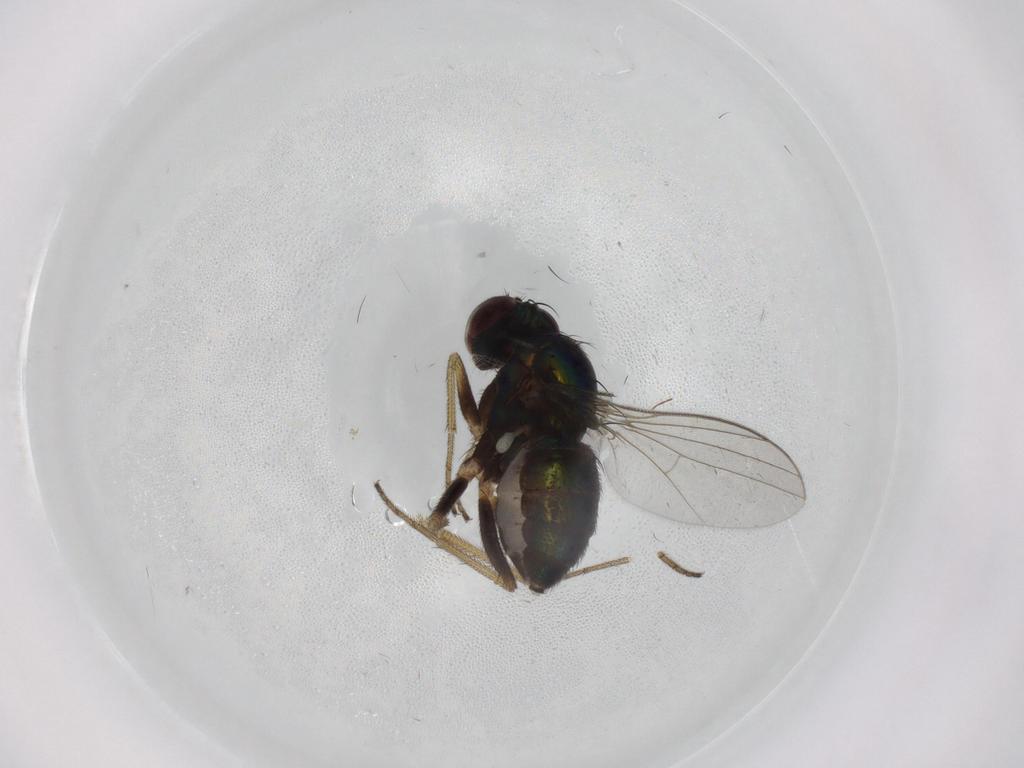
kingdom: Animalia
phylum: Arthropoda
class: Insecta
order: Diptera
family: Dolichopodidae
